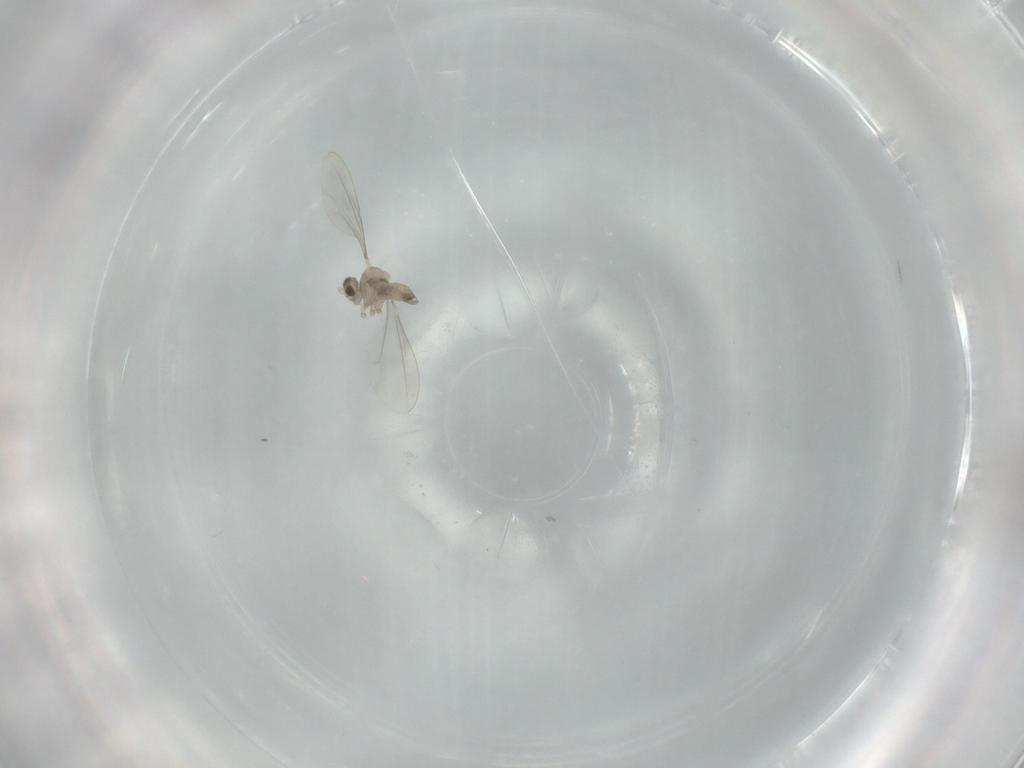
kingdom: Animalia
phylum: Arthropoda
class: Insecta
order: Diptera
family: Cecidomyiidae
